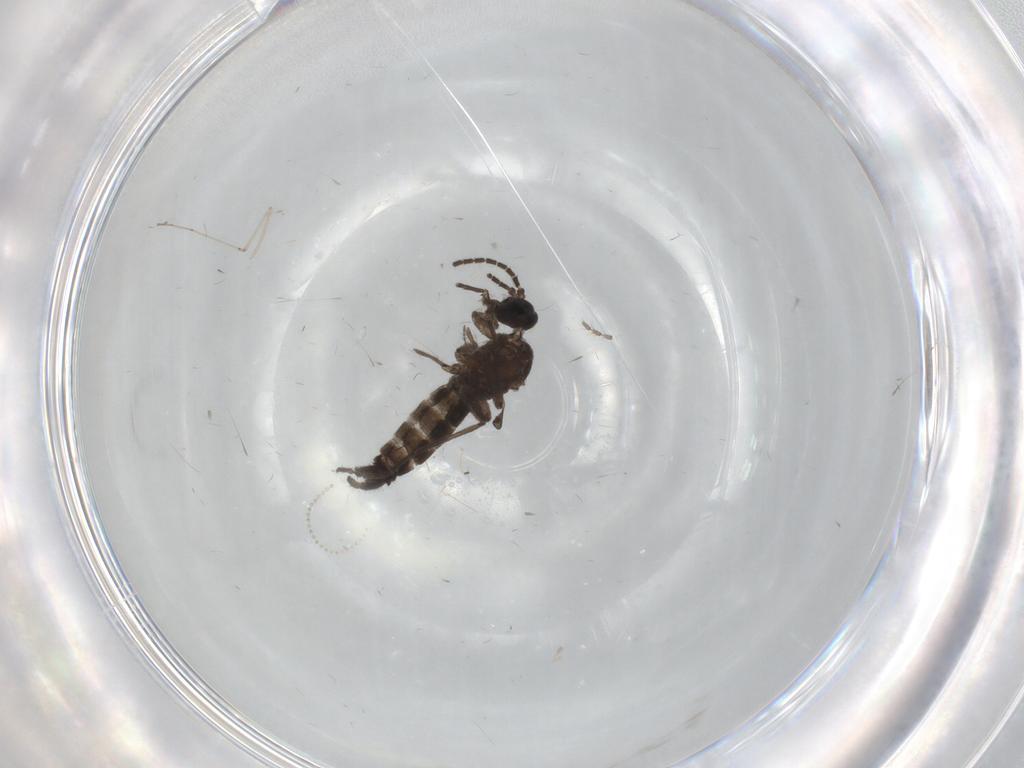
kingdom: Animalia
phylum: Arthropoda
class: Insecta
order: Diptera
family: Ceratopogonidae
